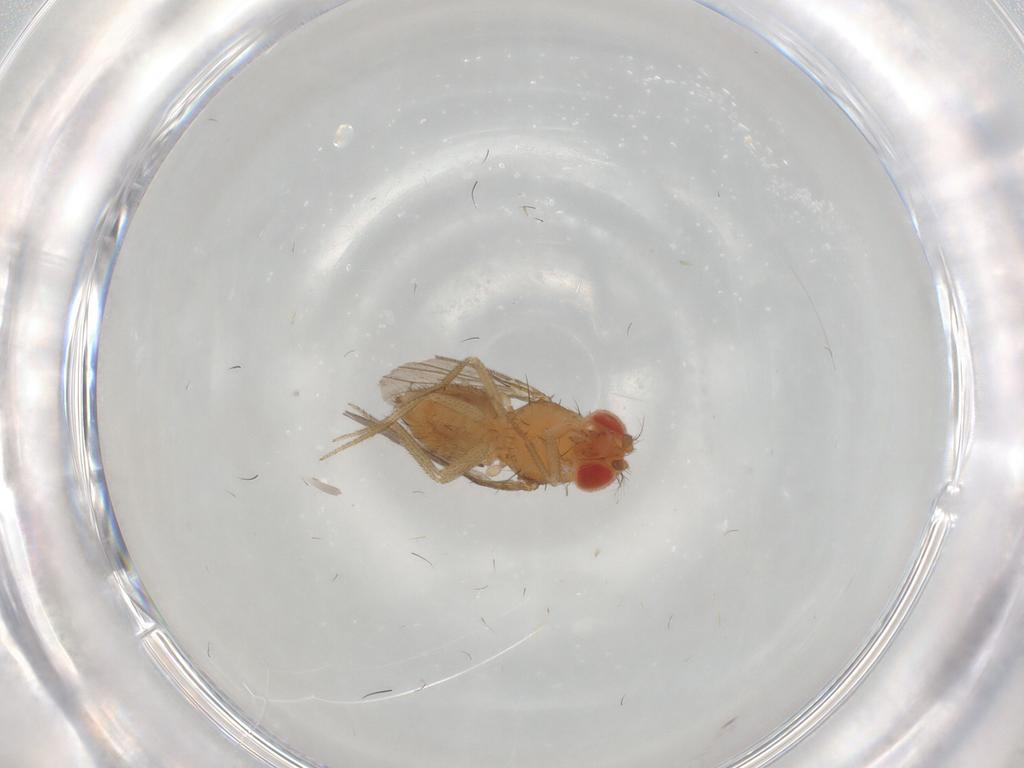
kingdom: Animalia
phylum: Arthropoda
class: Insecta
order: Diptera
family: Drosophilidae
